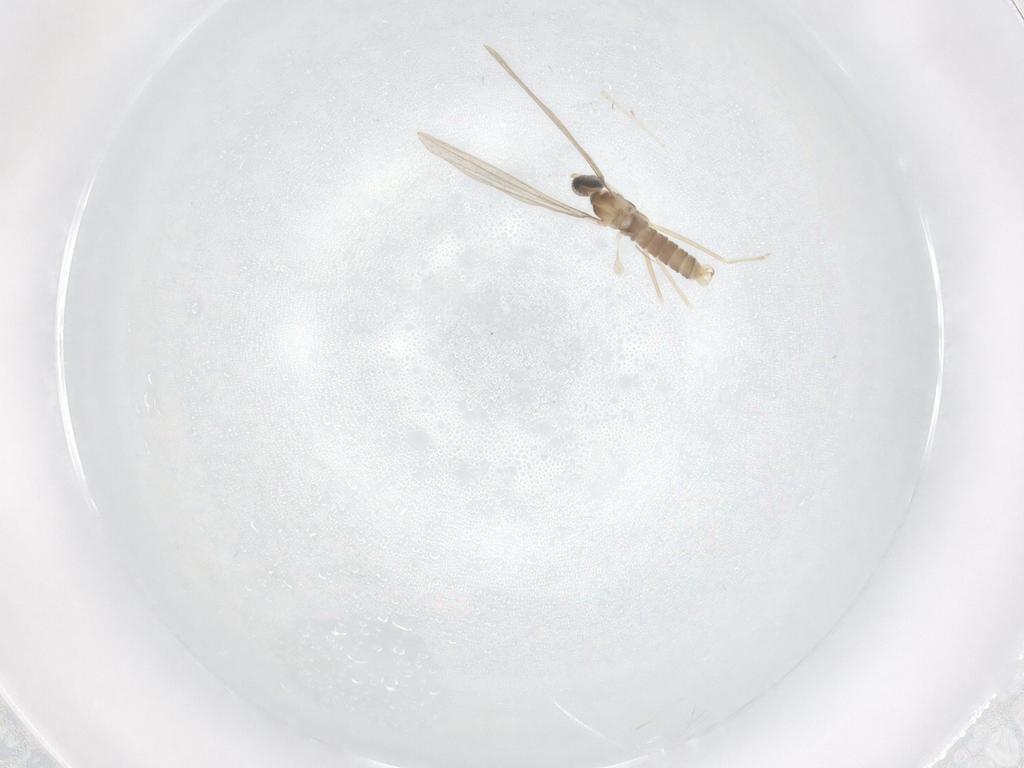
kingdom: Animalia
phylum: Arthropoda
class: Insecta
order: Diptera
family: Cecidomyiidae
